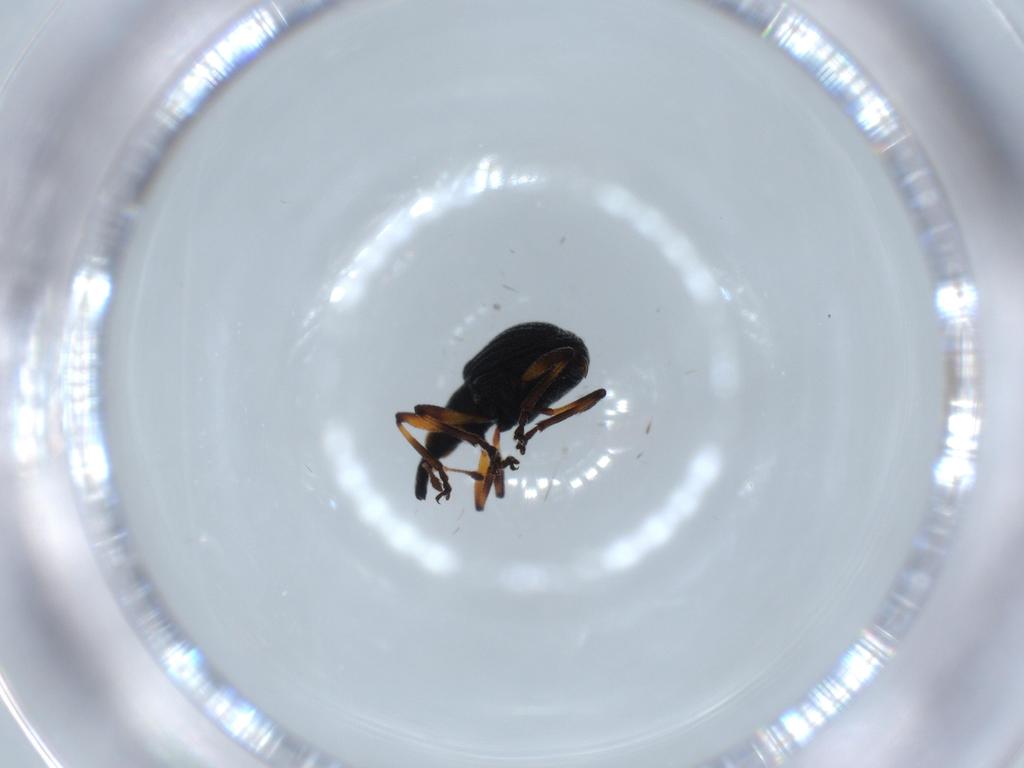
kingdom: Animalia
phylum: Arthropoda
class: Insecta
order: Coleoptera
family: Brentidae
